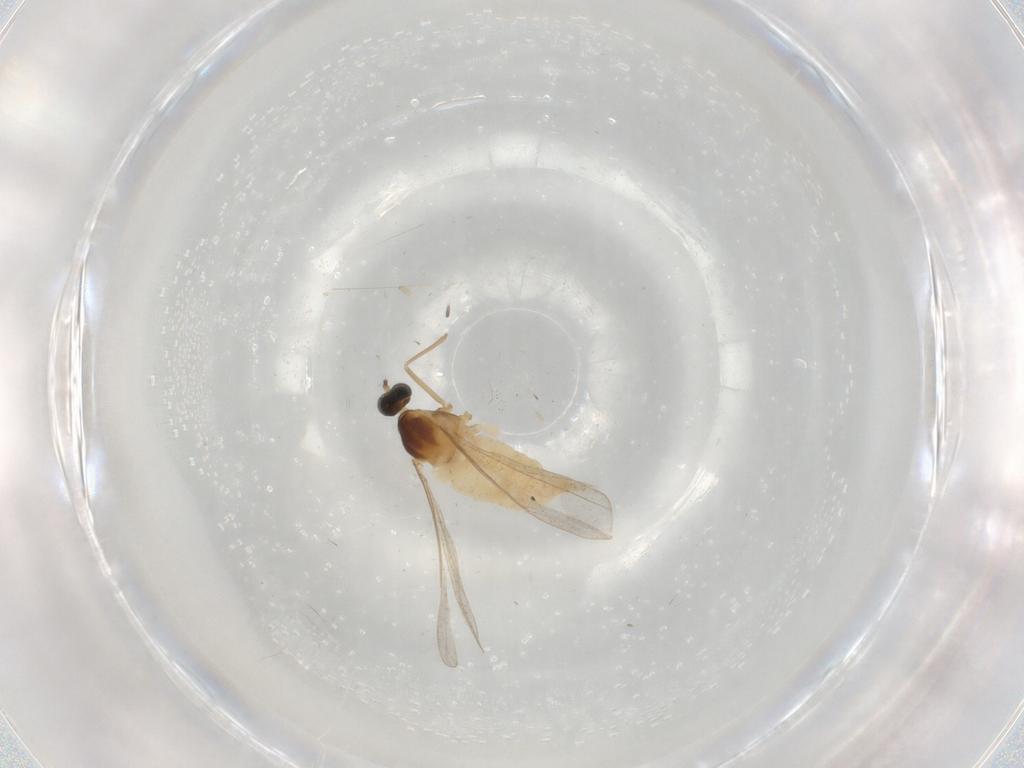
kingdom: Animalia
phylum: Arthropoda
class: Insecta
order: Diptera
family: Cecidomyiidae
